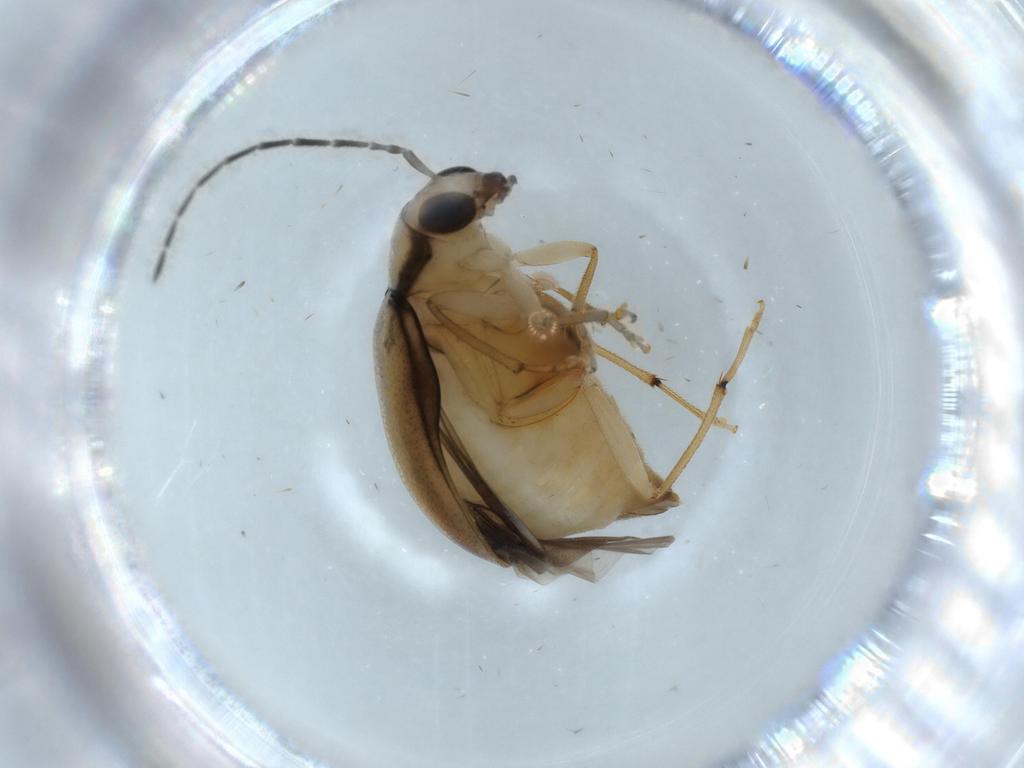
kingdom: Animalia
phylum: Arthropoda
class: Insecta
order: Coleoptera
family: Chrysomelidae
